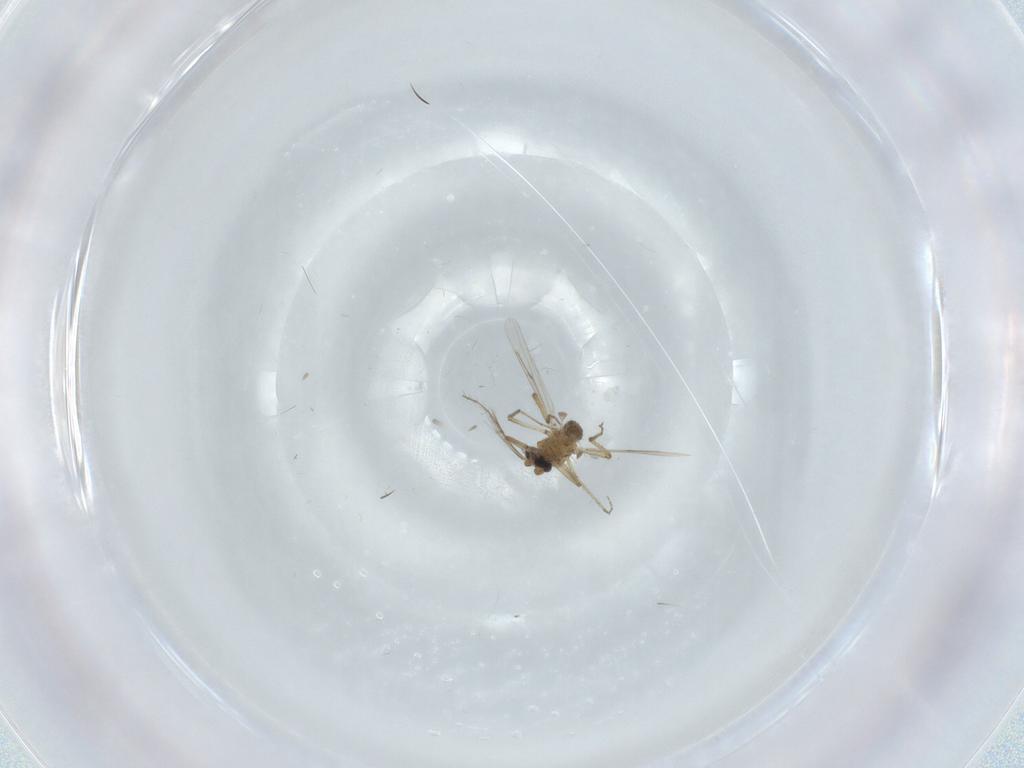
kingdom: Animalia
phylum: Arthropoda
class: Insecta
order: Diptera
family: Ceratopogonidae
